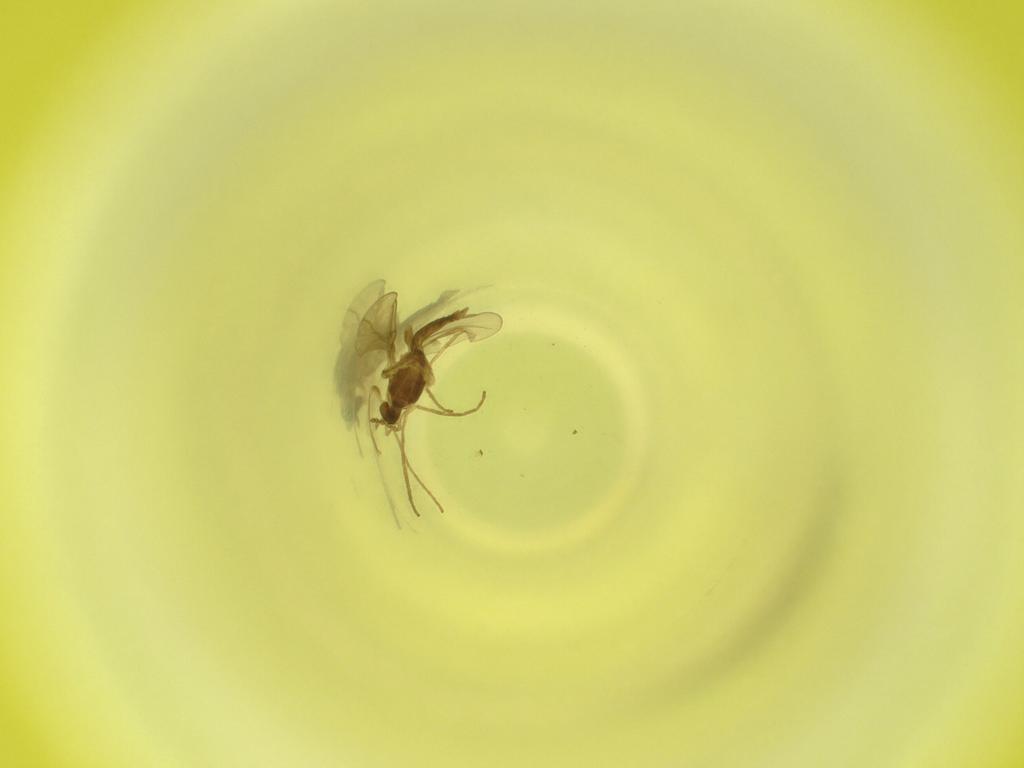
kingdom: Animalia
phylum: Arthropoda
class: Insecta
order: Diptera
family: Cecidomyiidae
